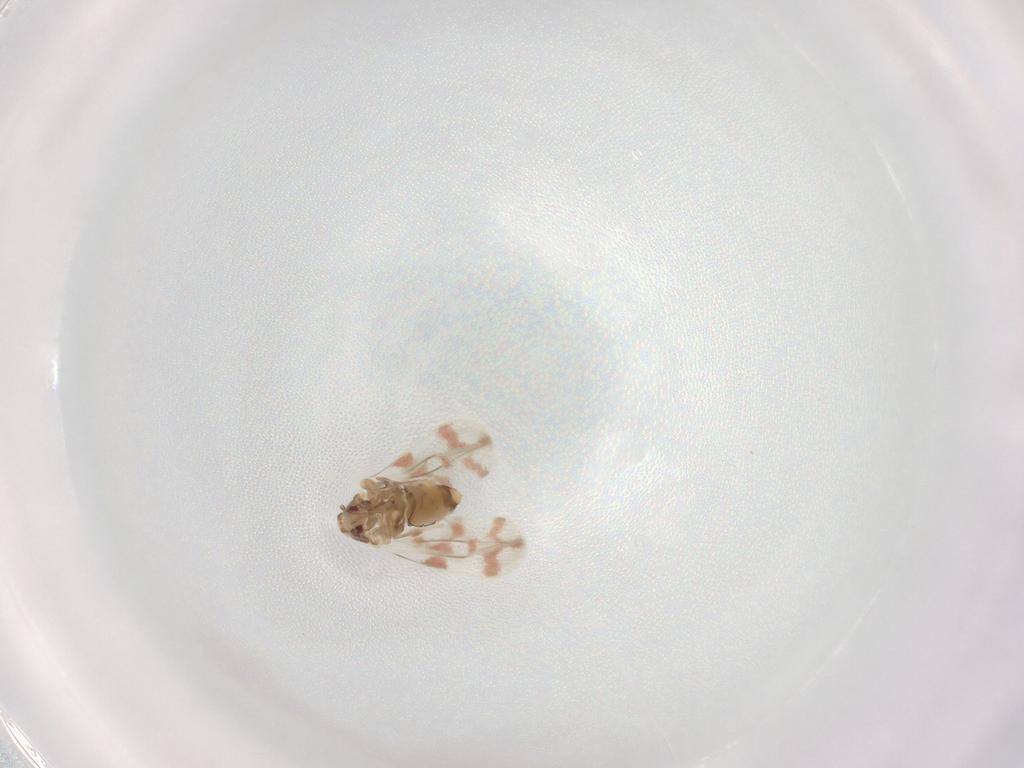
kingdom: Animalia
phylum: Arthropoda
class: Insecta
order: Hemiptera
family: Aleyrodidae
